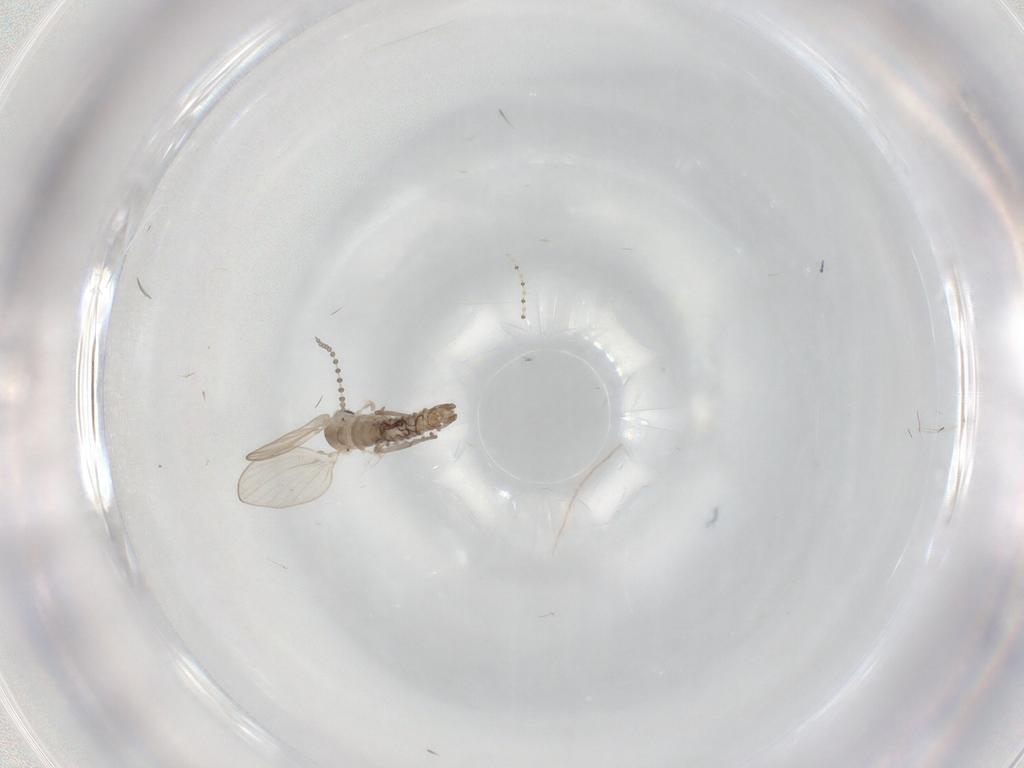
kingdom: Animalia
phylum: Arthropoda
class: Insecta
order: Diptera
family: Psychodidae
